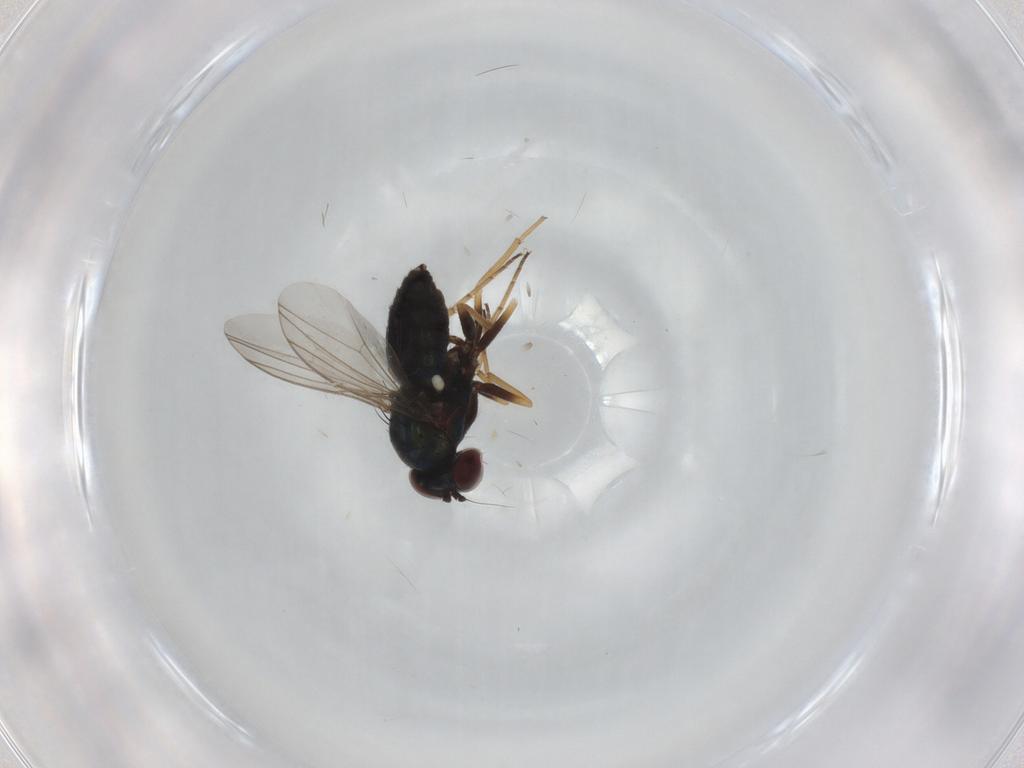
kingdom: Animalia
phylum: Arthropoda
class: Insecta
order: Diptera
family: Dolichopodidae
